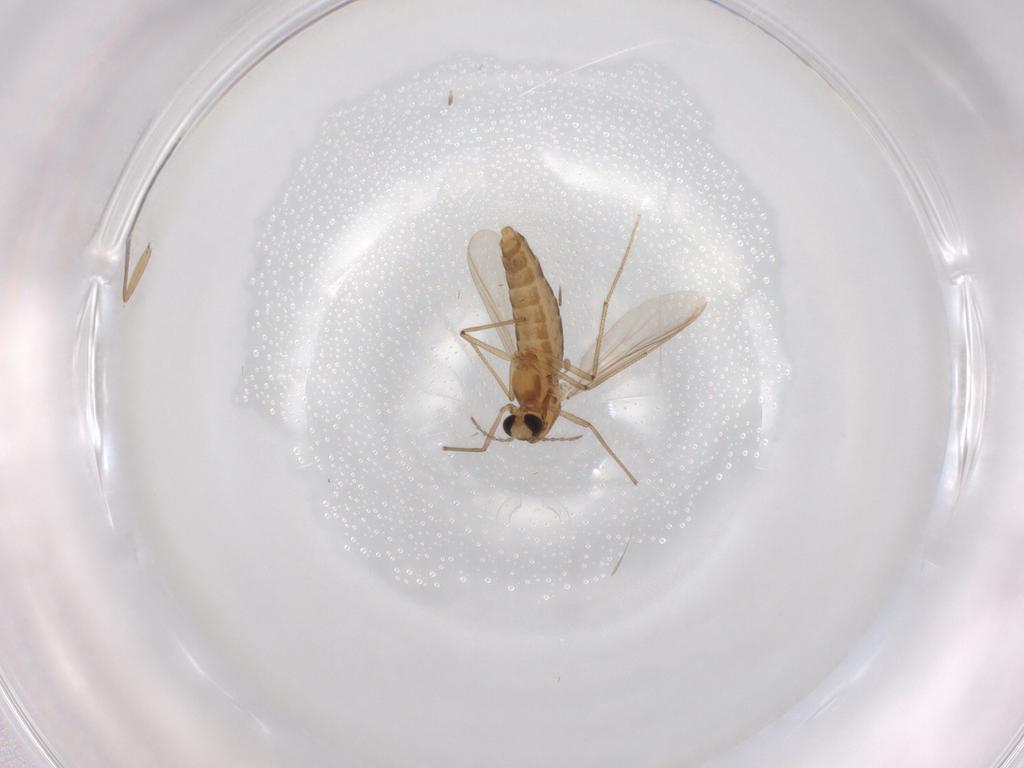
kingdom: Animalia
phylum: Arthropoda
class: Insecta
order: Diptera
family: Chironomidae
